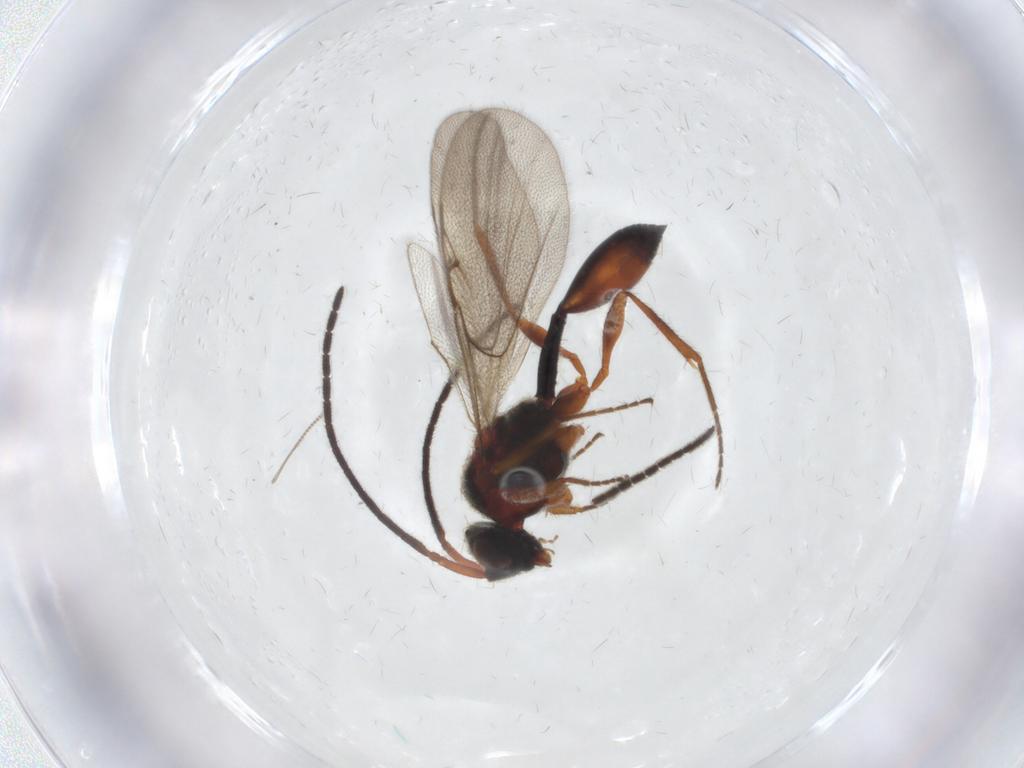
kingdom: Animalia
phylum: Arthropoda
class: Insecta
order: Hymenoptera
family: Diapriidae
